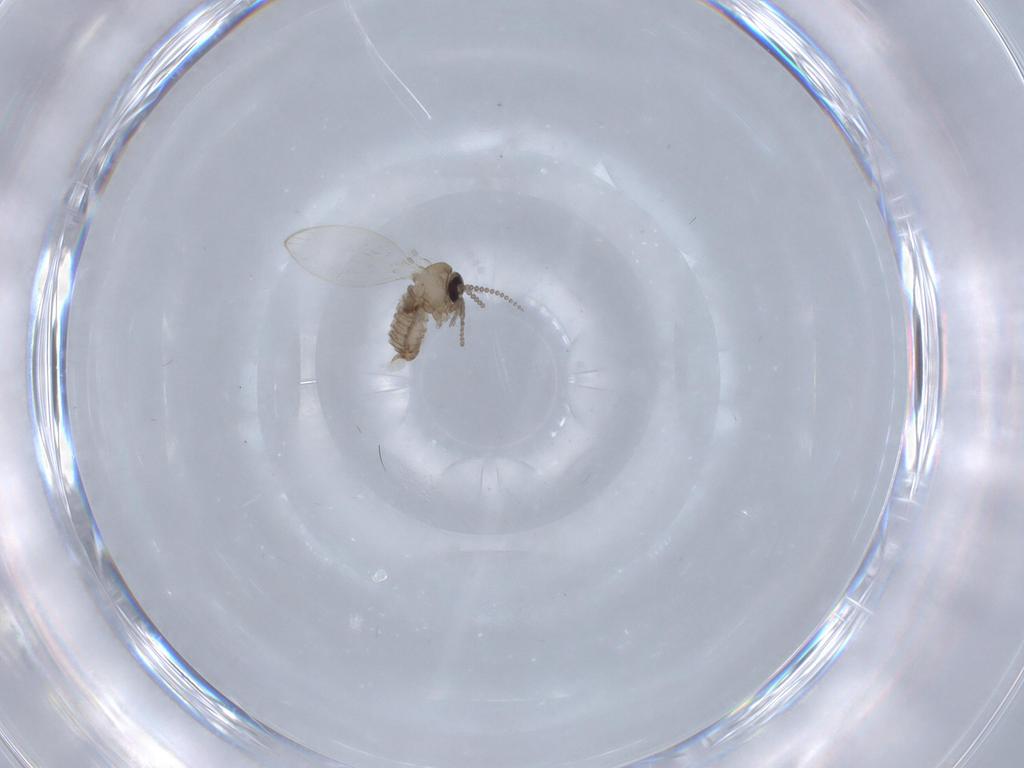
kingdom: Animalia
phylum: Arthropoda
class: Insecta
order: Diptera
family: Psychodidae
